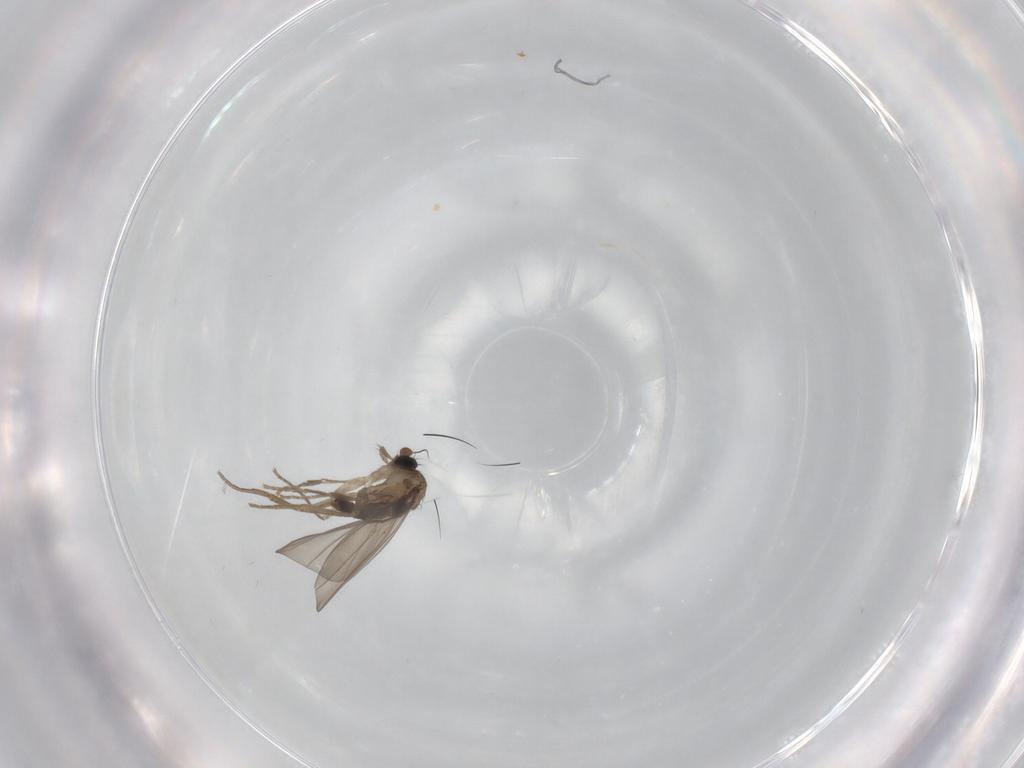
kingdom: Animalia
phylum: Arthropoda
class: Insecta
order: Diptera
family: Phoridae
